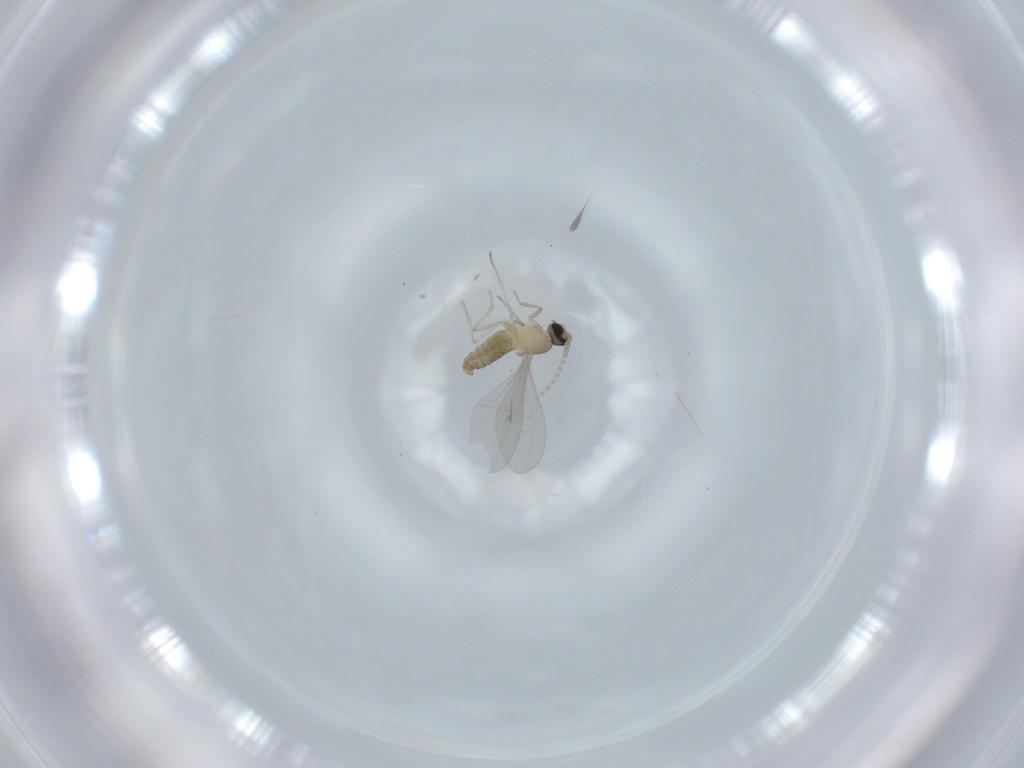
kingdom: Animalia
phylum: Arthropoda
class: Insecta
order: Diptera
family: Cecidomyiidae
